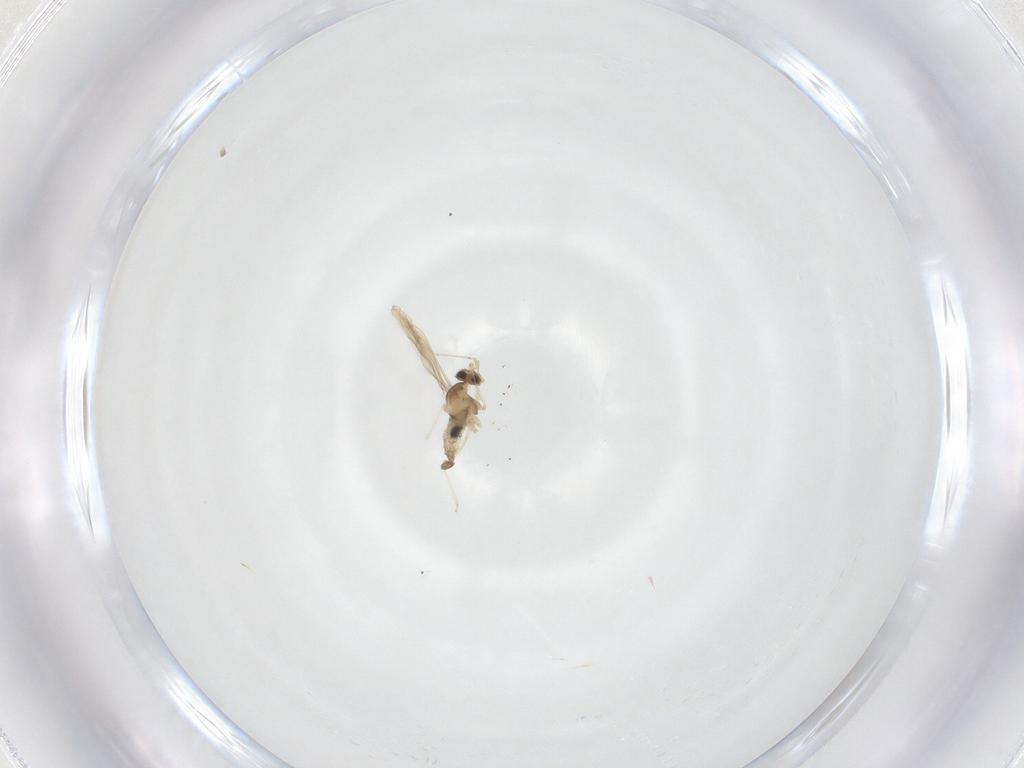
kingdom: Animalia
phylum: Arthropoda
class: Insecta
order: Diptera
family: Cecidomyiidae
